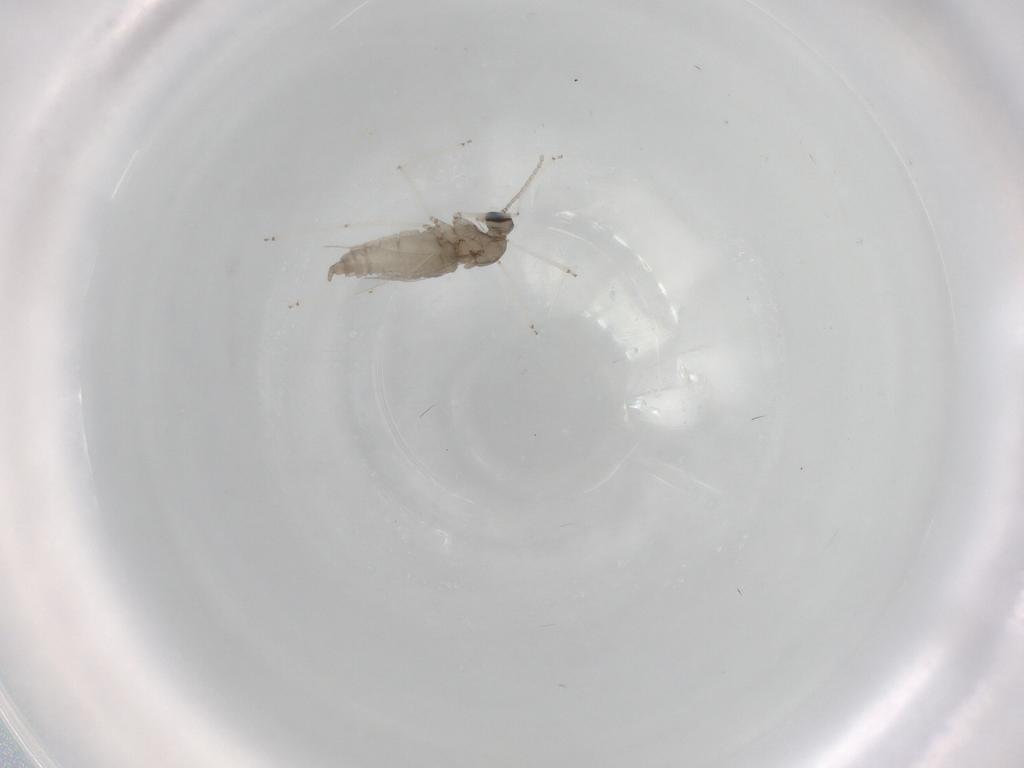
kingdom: Animalia
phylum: Arthropoda
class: Insecta
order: Diptera
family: Cecidomyiidae
